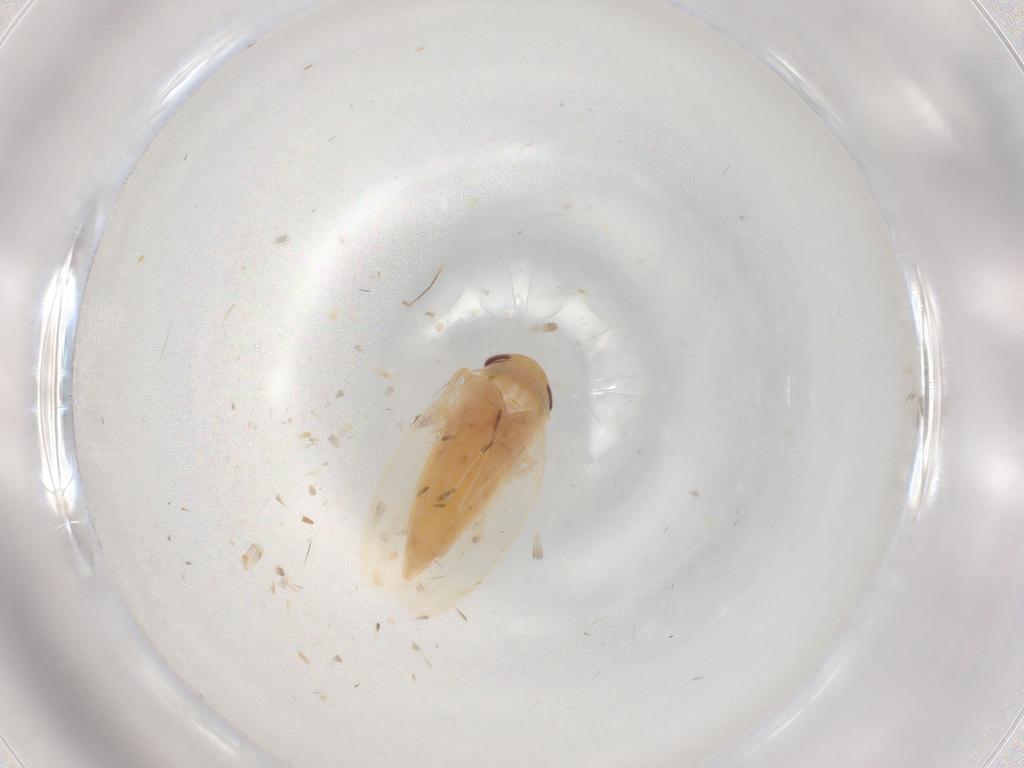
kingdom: Animalia
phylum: Arthropoda
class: Insecta
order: Hemiptera
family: Cicadellidae
